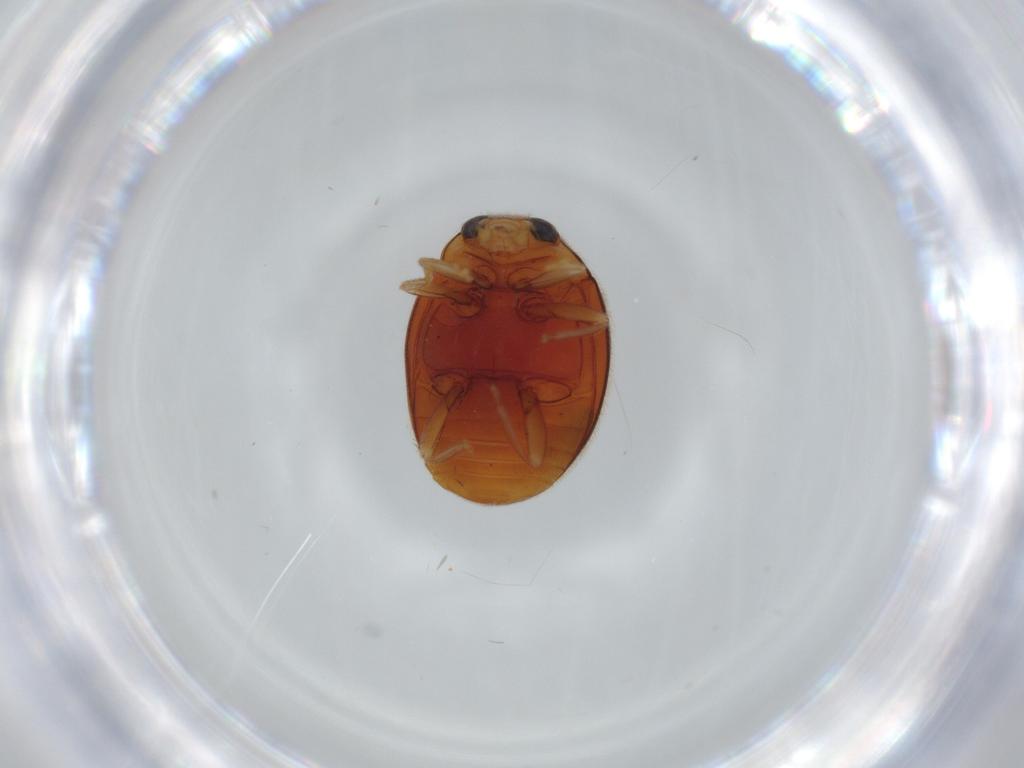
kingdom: Animalia
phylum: Arthropoda
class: Insecta
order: Coleoptera
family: Coccinellidae
